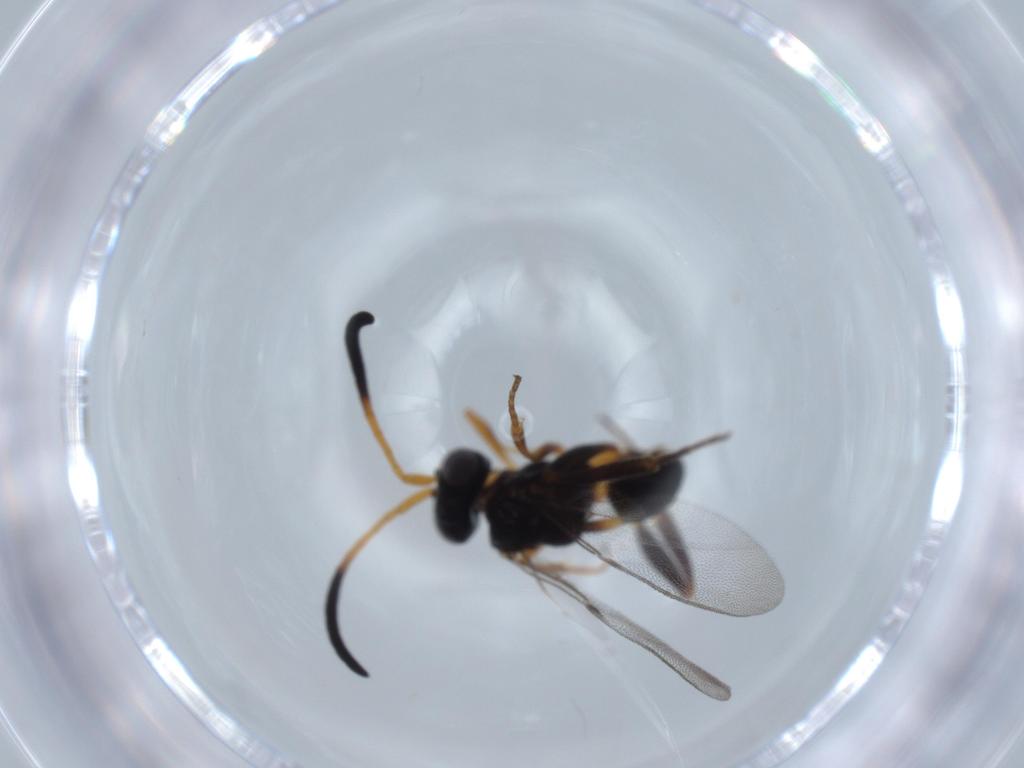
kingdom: Animalia
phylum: Arthropoda
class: Insecta
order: Hymenoptera
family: Evaniidae
